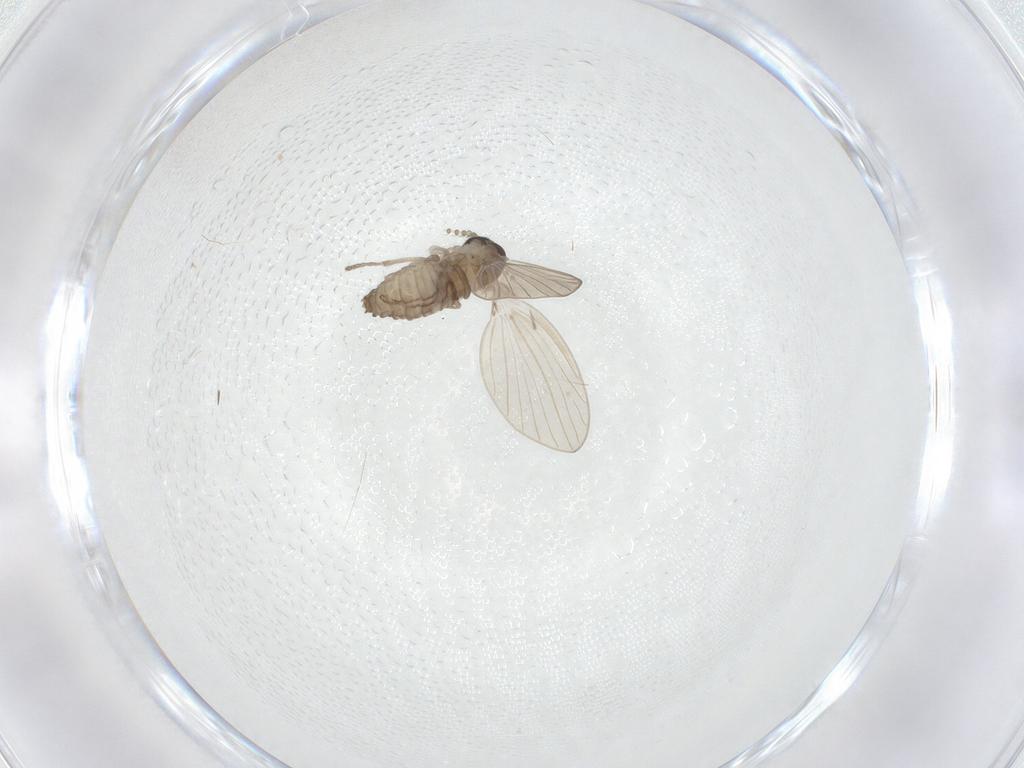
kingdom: Animalia
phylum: Arthropoda
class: Insecta
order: Diptera
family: Psychodidae
